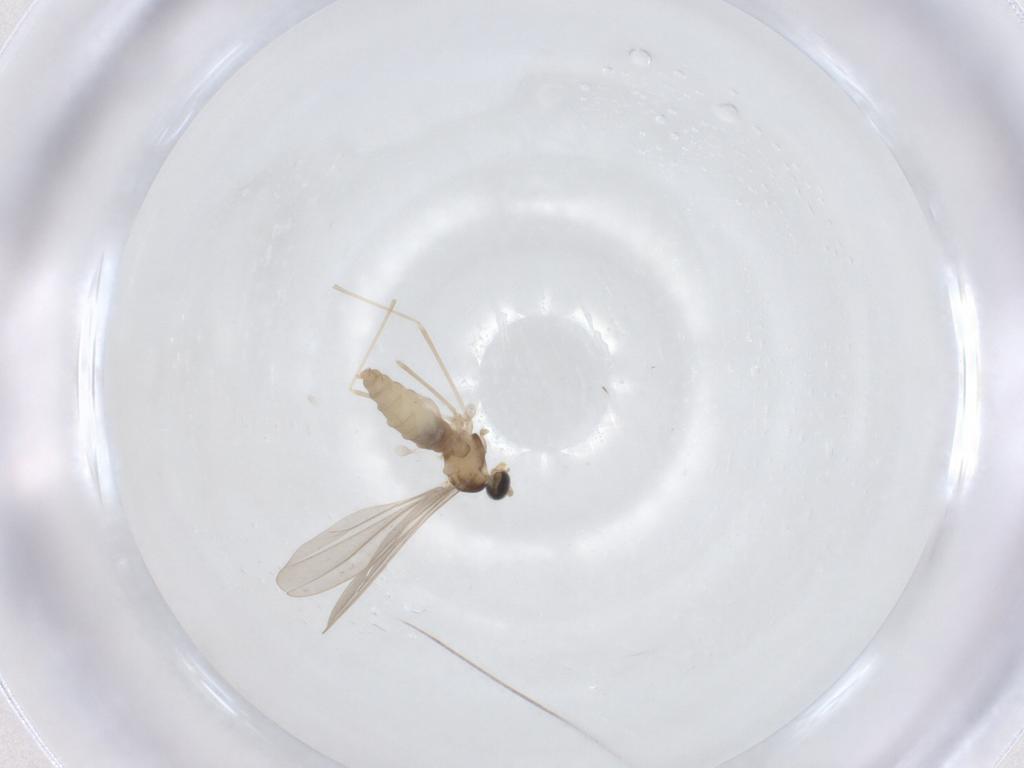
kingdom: Animalia
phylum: Arthropoda
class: Insecta
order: Diptera
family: Cecidomyiidae
